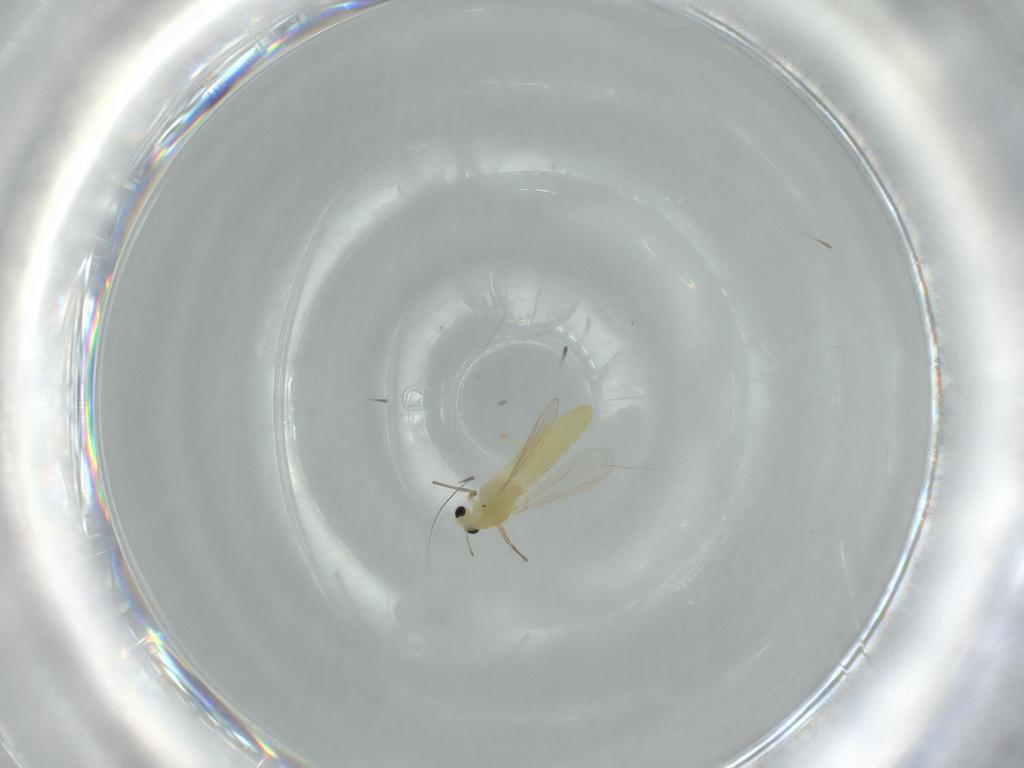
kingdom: Animalia
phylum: Arthropoda
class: Insecta
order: Diptera
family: Chironomidae
